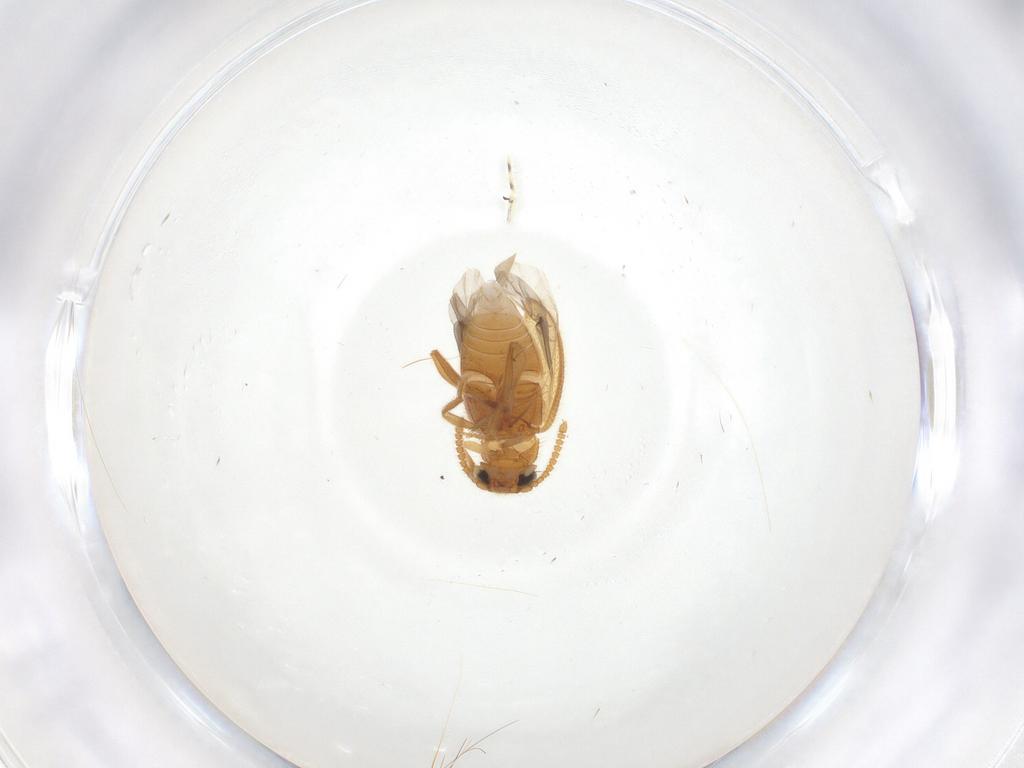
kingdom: Animalia
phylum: Arthropoda
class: Insecta
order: Coleoptera
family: Aderidae
